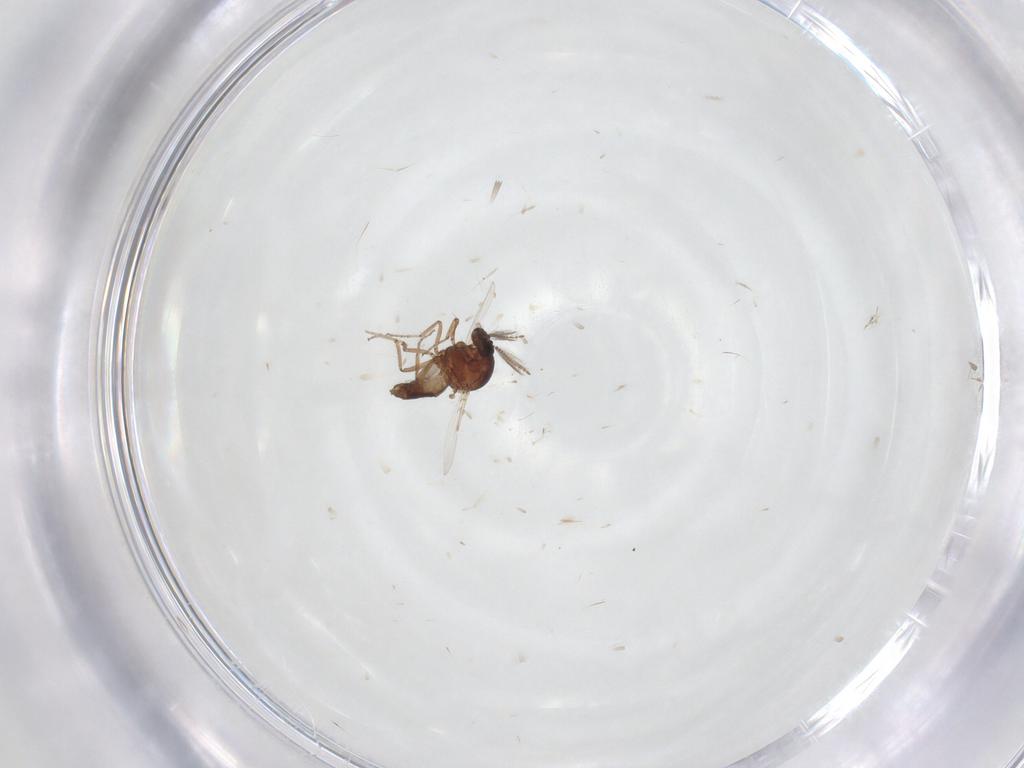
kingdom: Animalia
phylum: Arthropoda
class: Insecta
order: Diptera
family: Ceratopogonidae
